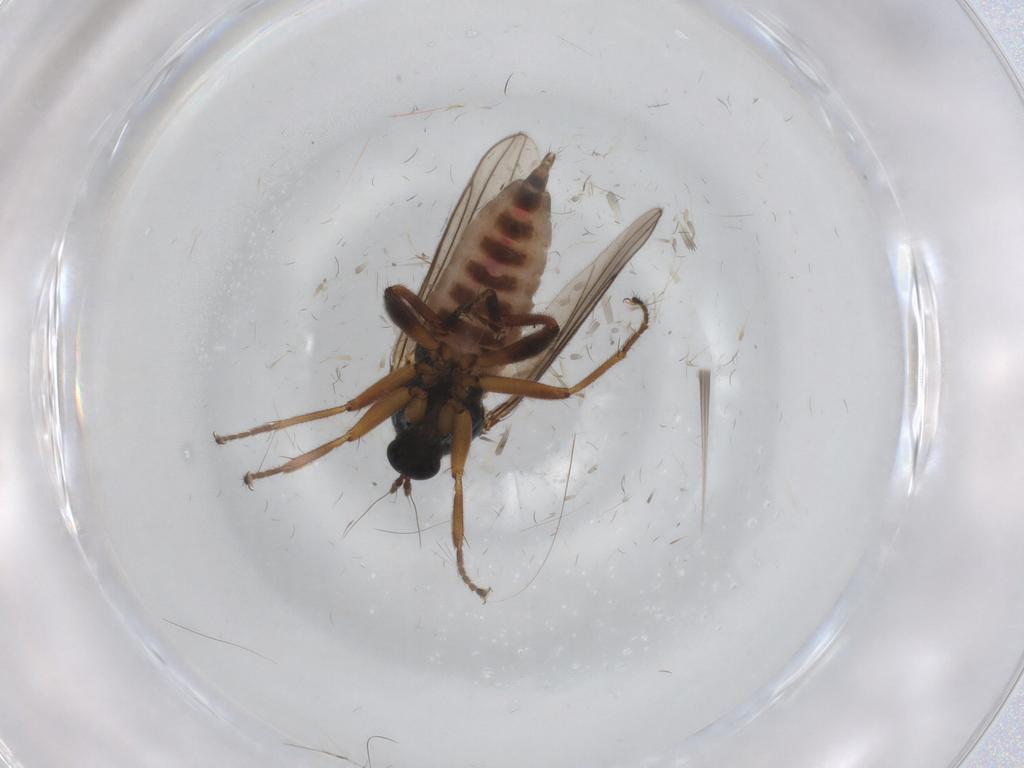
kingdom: Animalia
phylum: Arthropoda
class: Insecta
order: Diptera
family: Hybotidae
